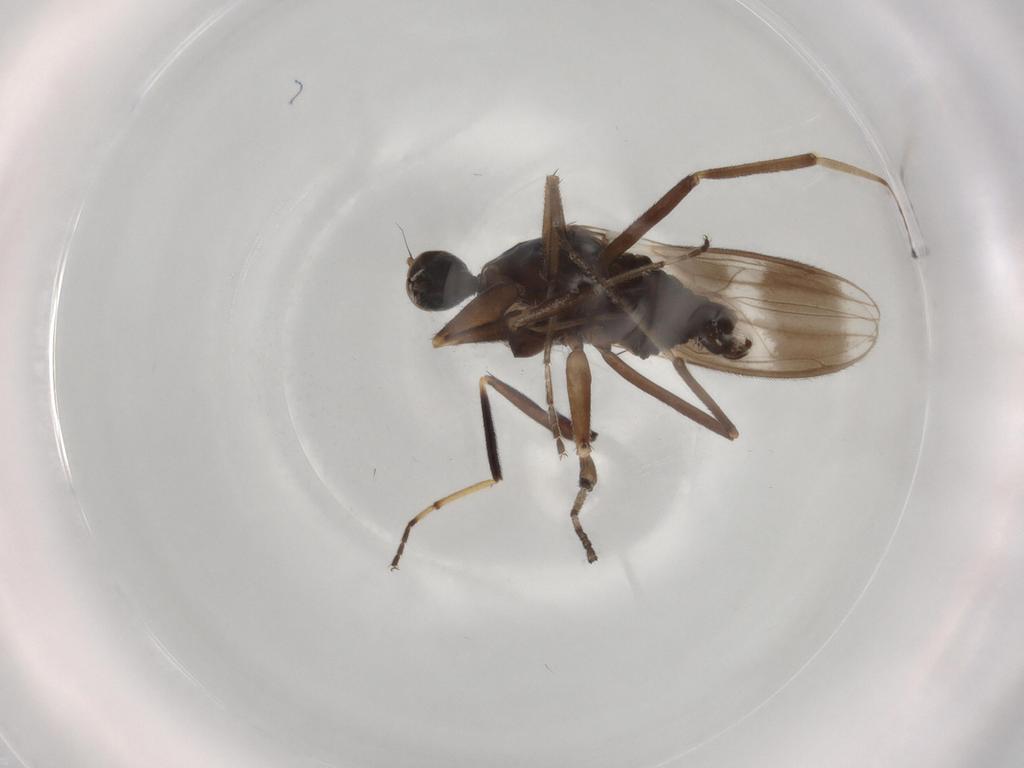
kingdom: Animalia
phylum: Arthropoda
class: Insecta
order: Diptera
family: Hybotidae
